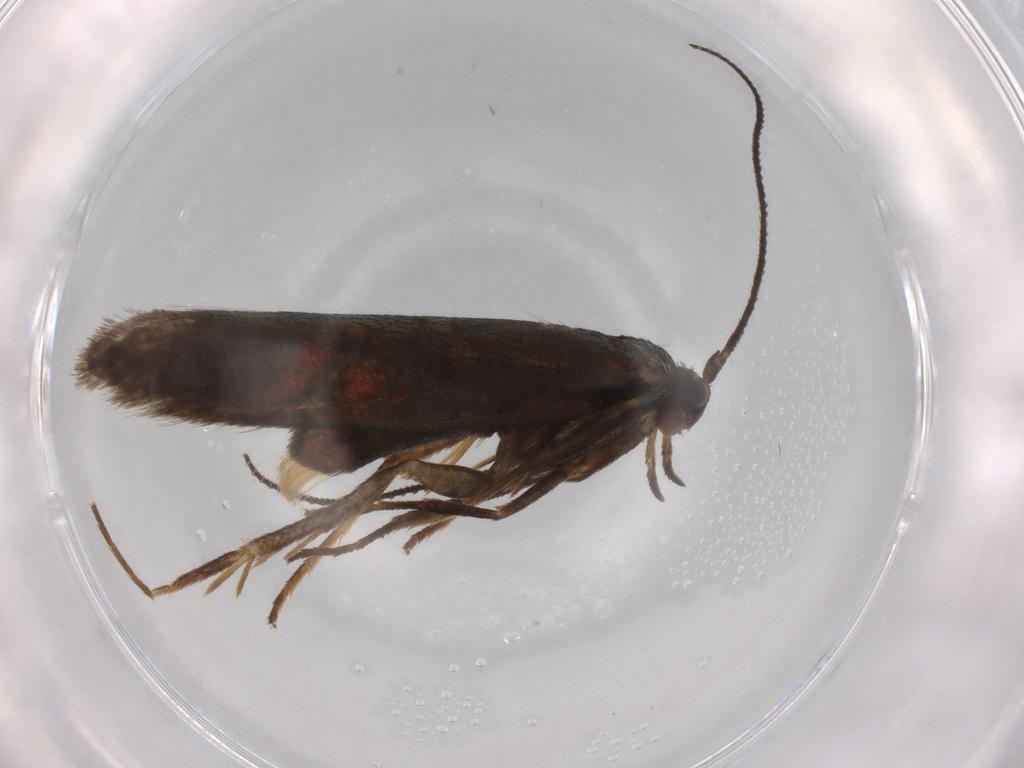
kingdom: Animalia
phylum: Arthropoda
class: Insecta
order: Lepidoptera
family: Argyresthiidae
